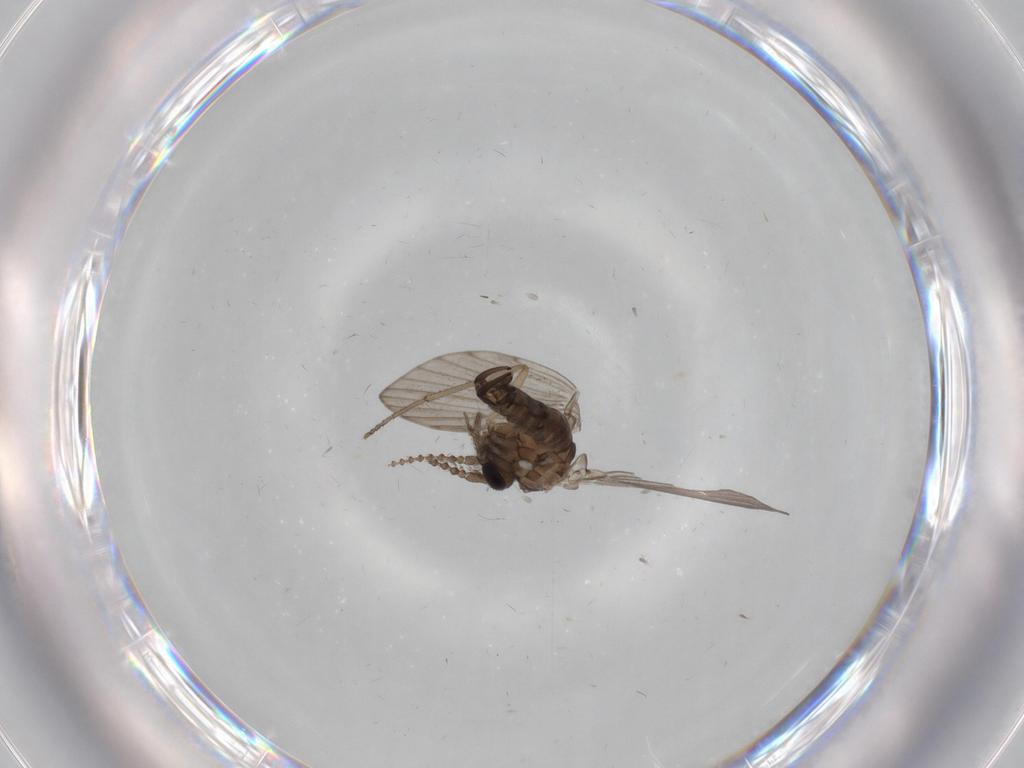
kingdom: Animalia
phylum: Arthropoda
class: Insecta
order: Diptera
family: Psychodidae
